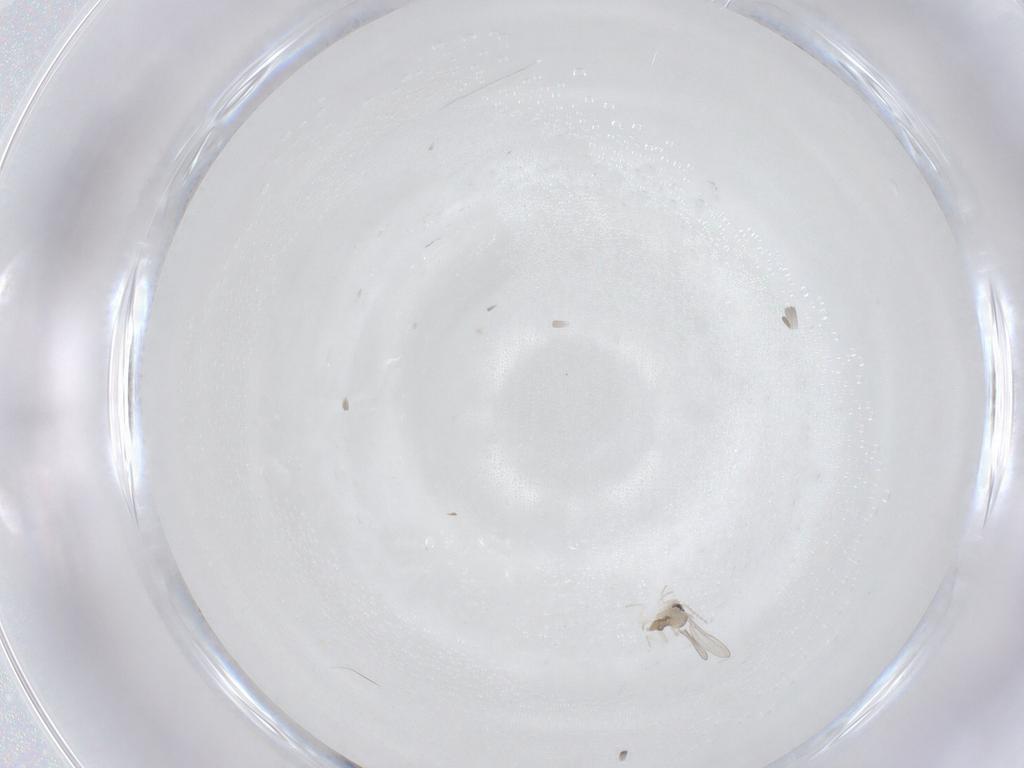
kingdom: Animalia
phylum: Arthropoda
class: Insecta
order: Diptera
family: Cecidomyiidae
